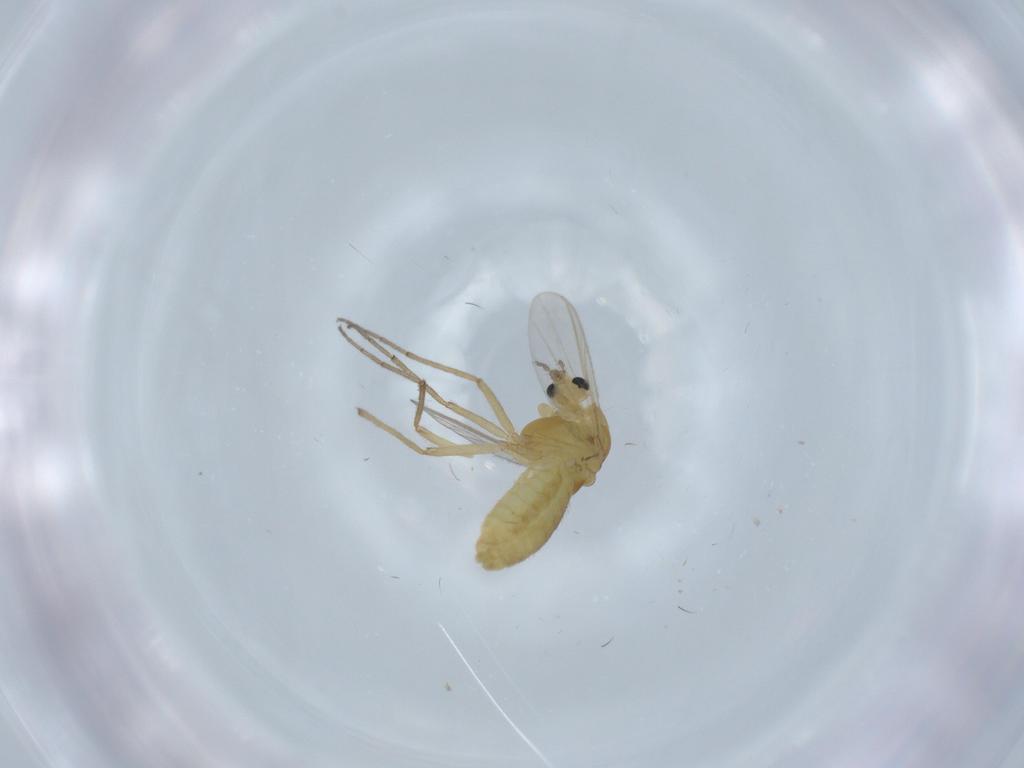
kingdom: Animalia
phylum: Arthropoda
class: Insecta
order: Diptera
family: Chironomidae
